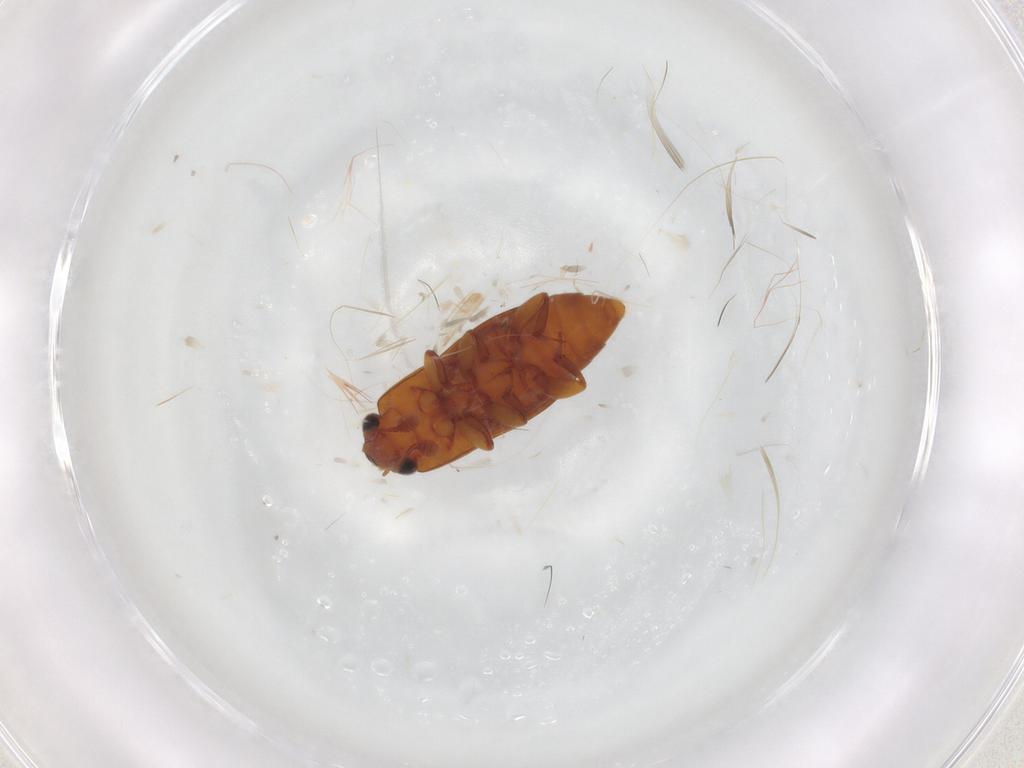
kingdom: Animalia
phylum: Arthropoda
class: Insecta
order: Coleoptera
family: Nitidulidae
